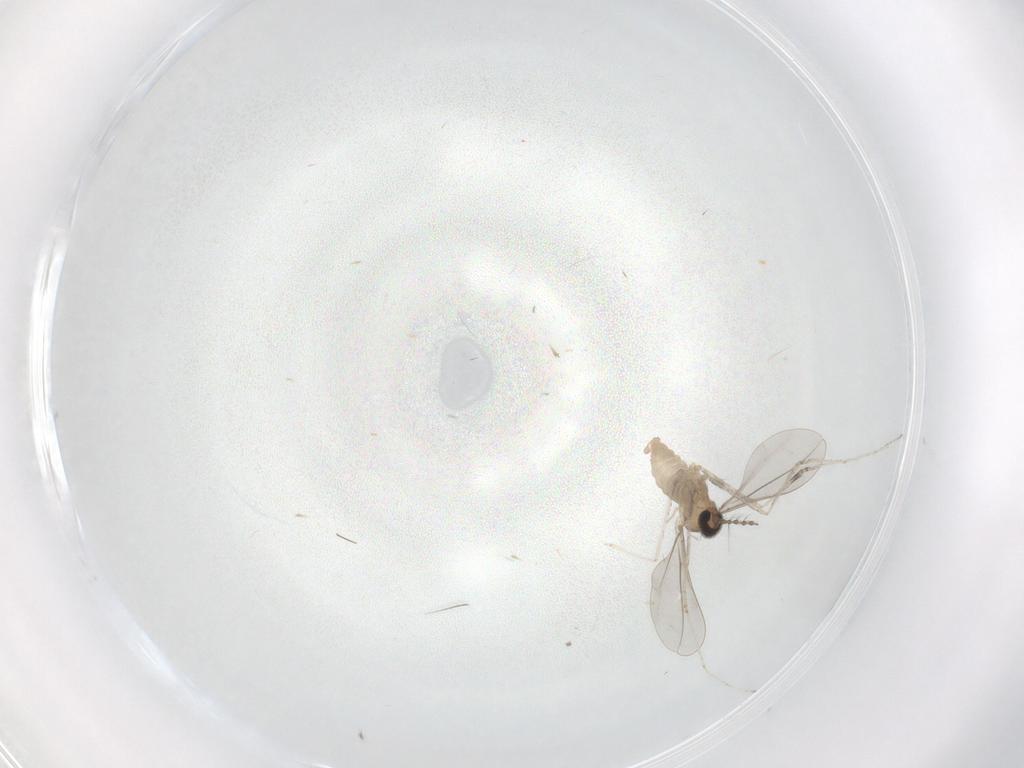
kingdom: Animalia
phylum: Arthropoda
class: Insecta
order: Diptera
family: Cecidomyiidae
